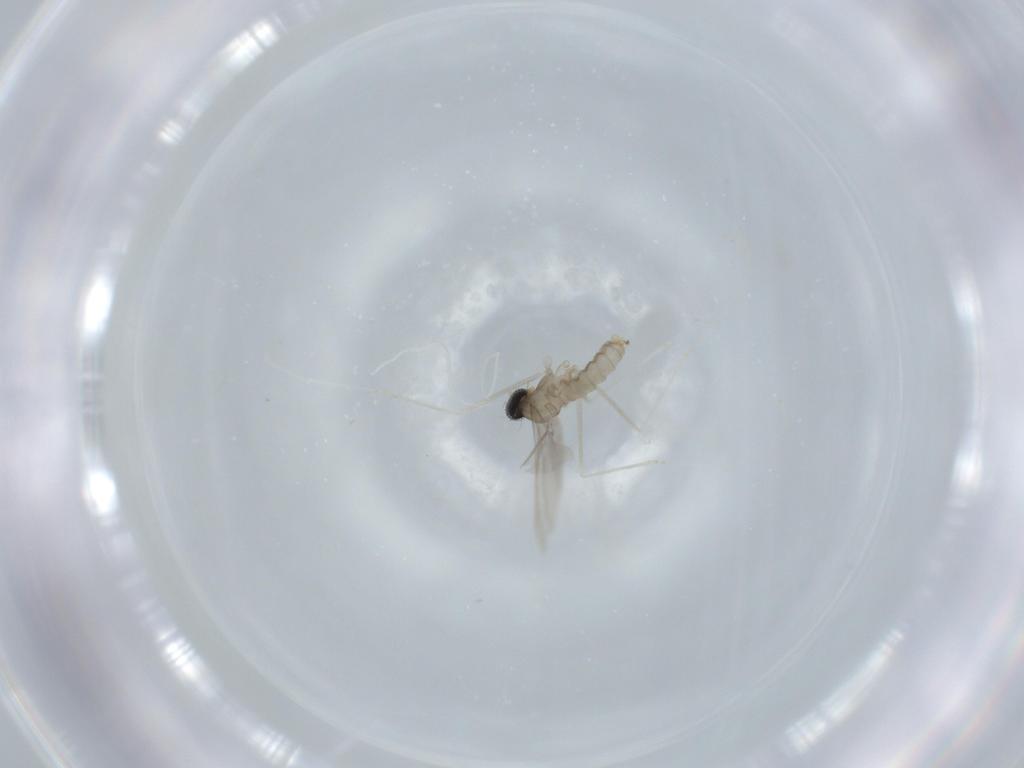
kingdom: Animalia
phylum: Arthropoda
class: Insecta
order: Diptera
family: Cecidomyiidae
